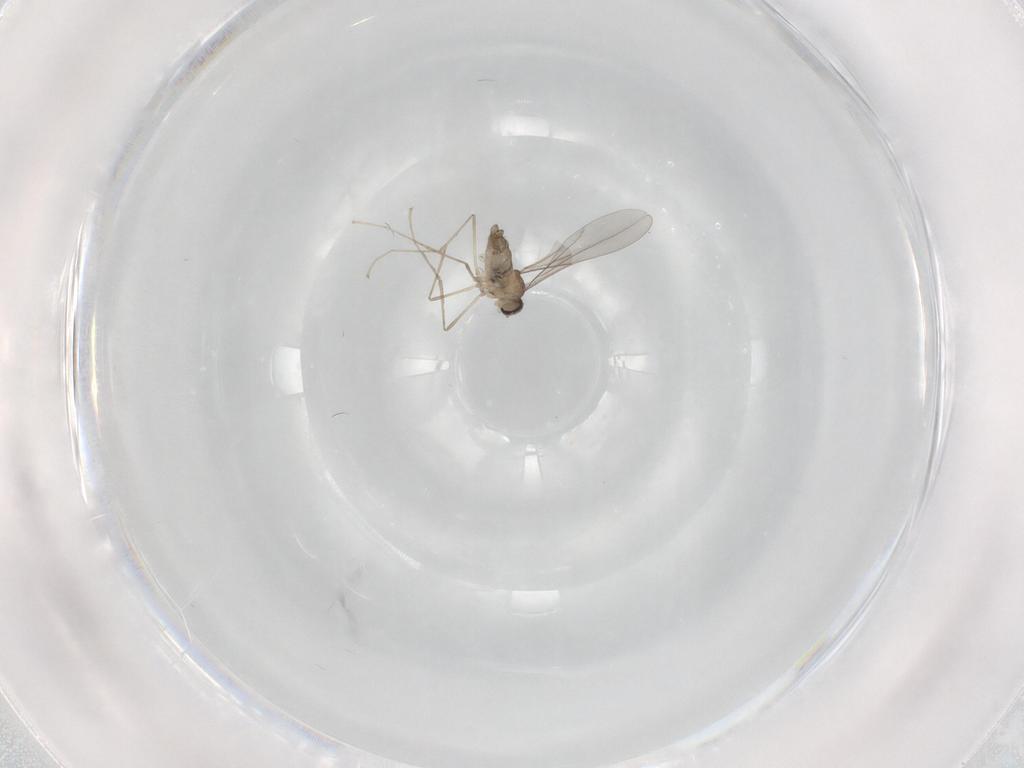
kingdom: Animalia
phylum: Arthropoda
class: Insecta
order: Diptera
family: Cecidomyiidae
